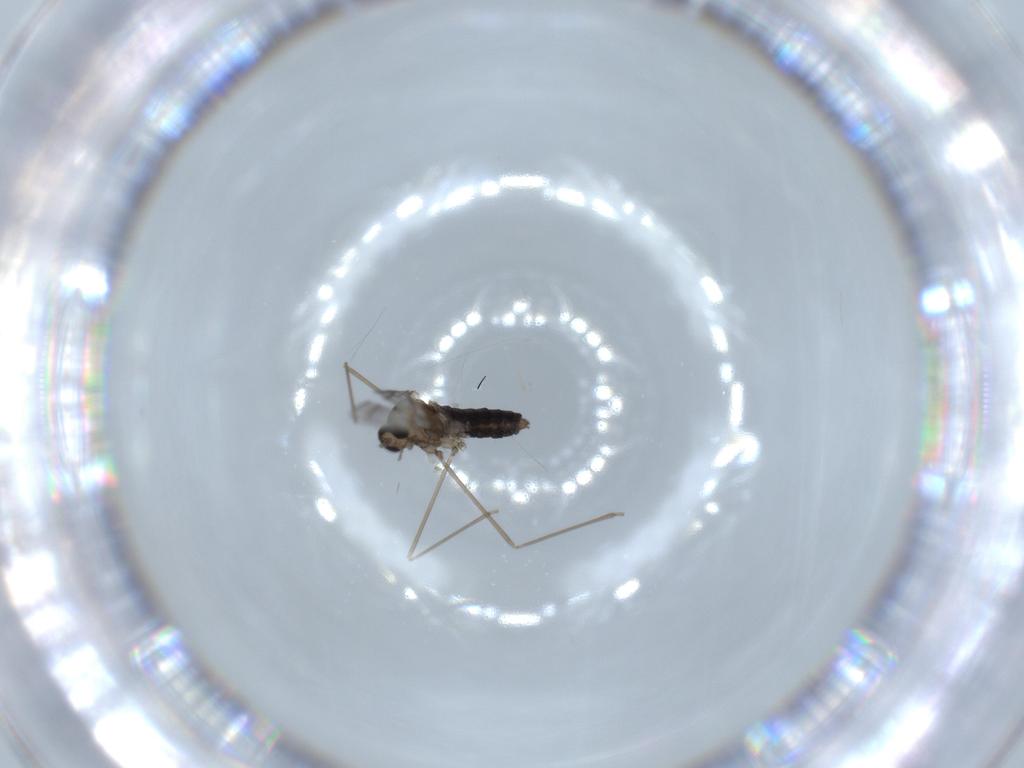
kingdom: Animalia
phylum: Arthropoda
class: Insecta
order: Diptera
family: Cecidomyiidae
